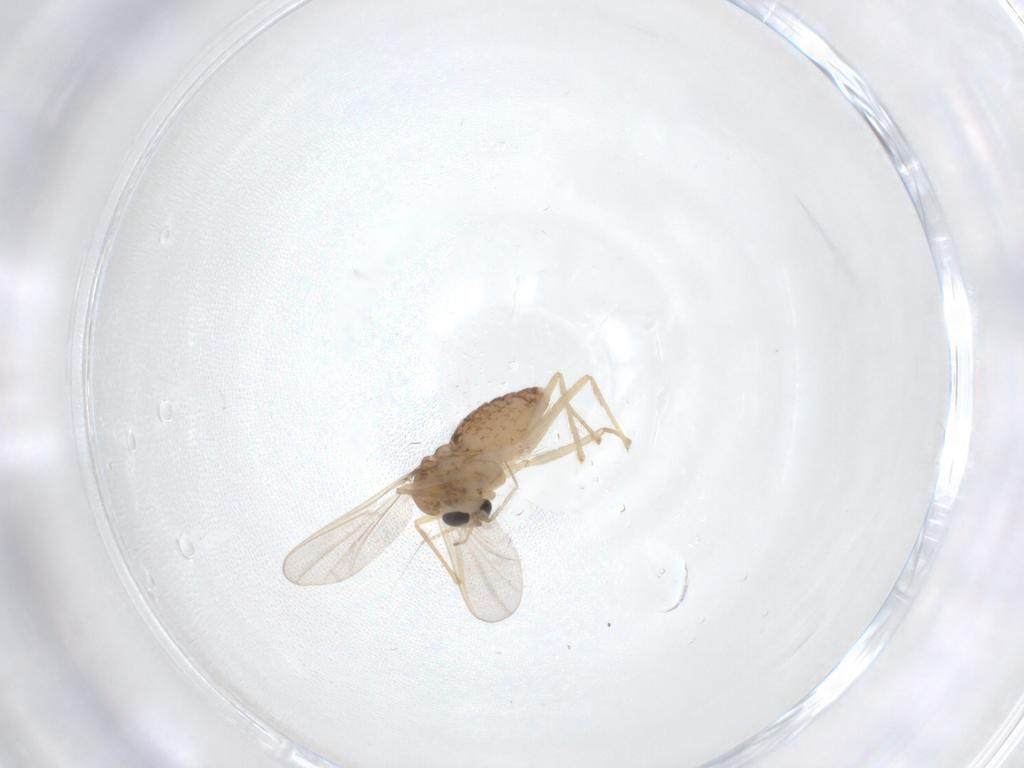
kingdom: Animalia
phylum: Arthropoda
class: Insecta
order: Diptera
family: Chironomidae
